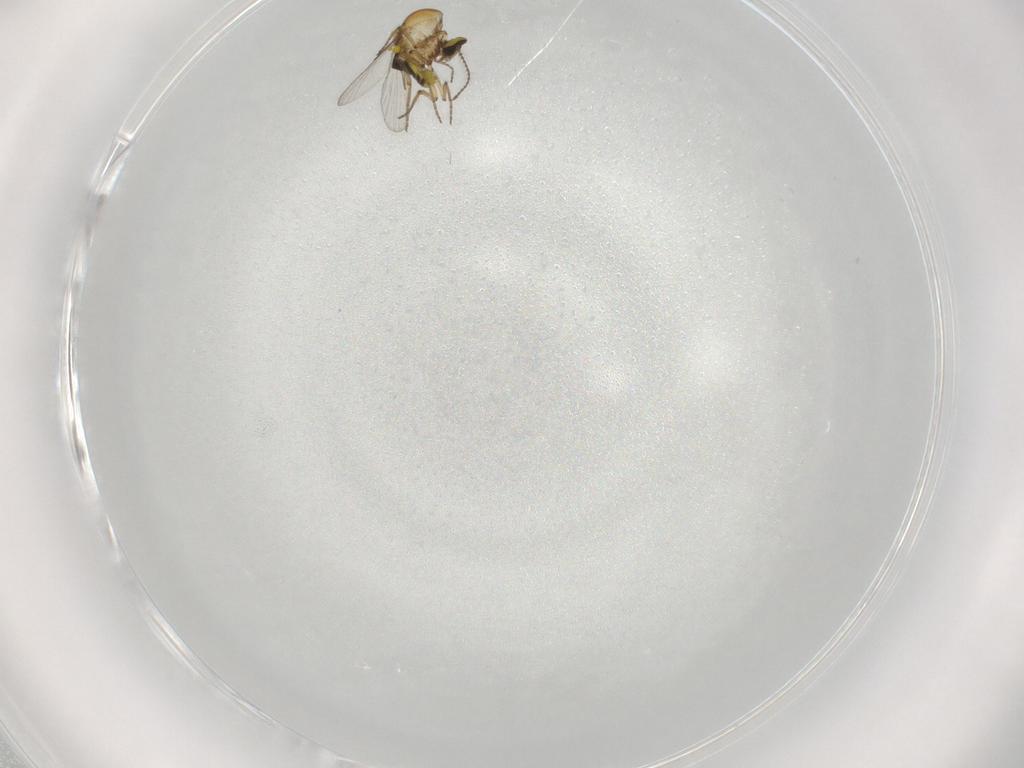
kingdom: Animalia
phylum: Arthropoda
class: Insecta
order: Diptera
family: Ceratopogonidae
